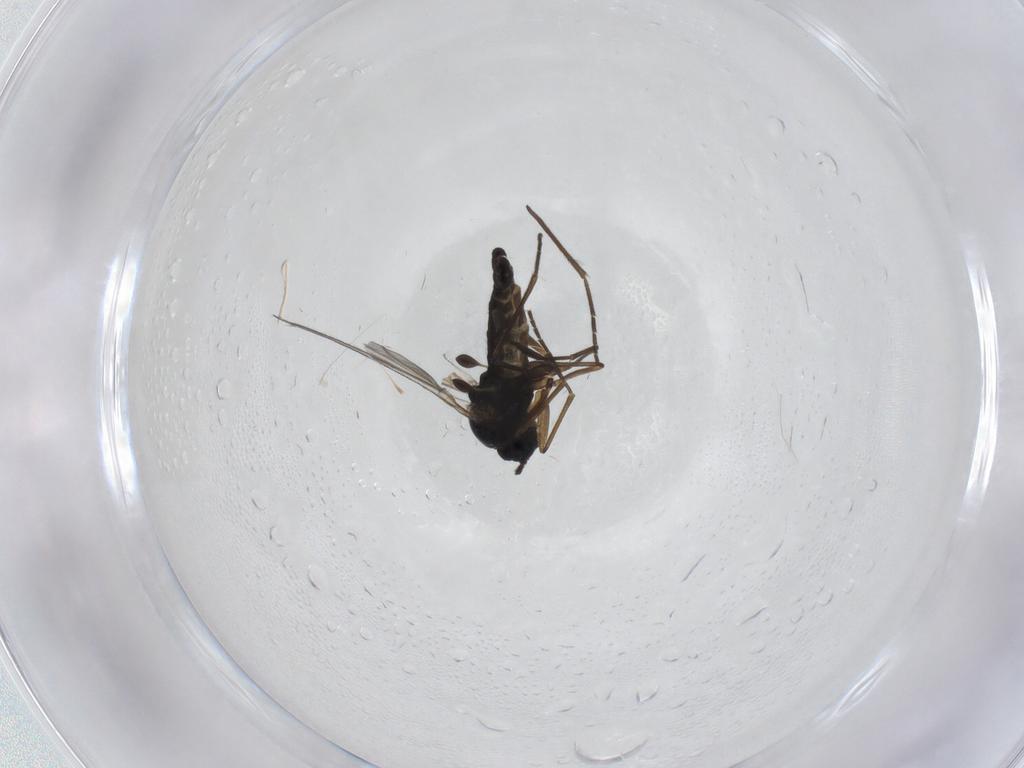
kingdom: Animalia
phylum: Arthropoda
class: Insecta
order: Diptera
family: Sciaridae
